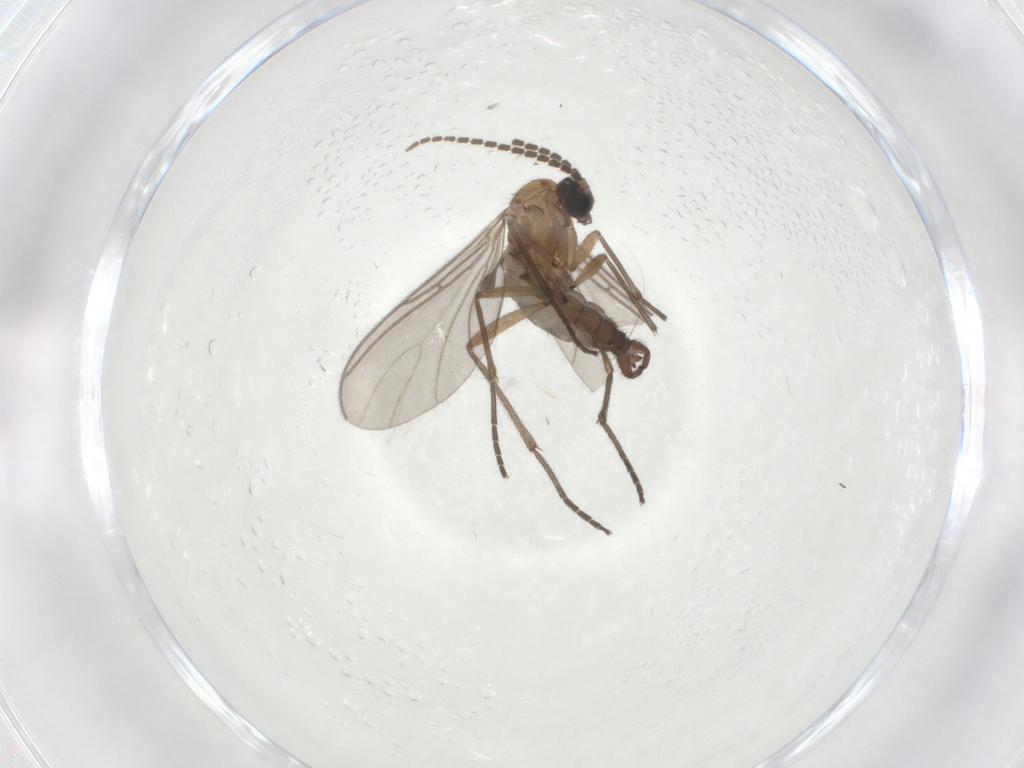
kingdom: Animalia
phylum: Arthropoda
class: Insecta
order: Diptera
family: Sciaridae
